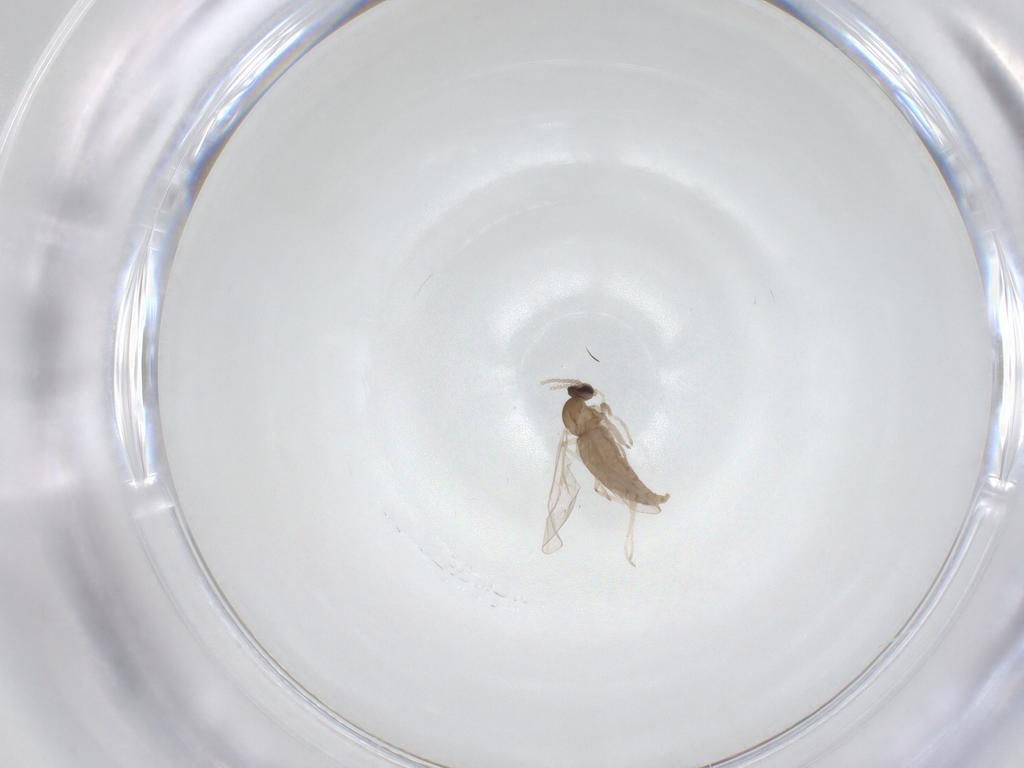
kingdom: Animalia
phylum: Arthropoda
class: Insecta
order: Diptera
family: Cecidomyiidae
